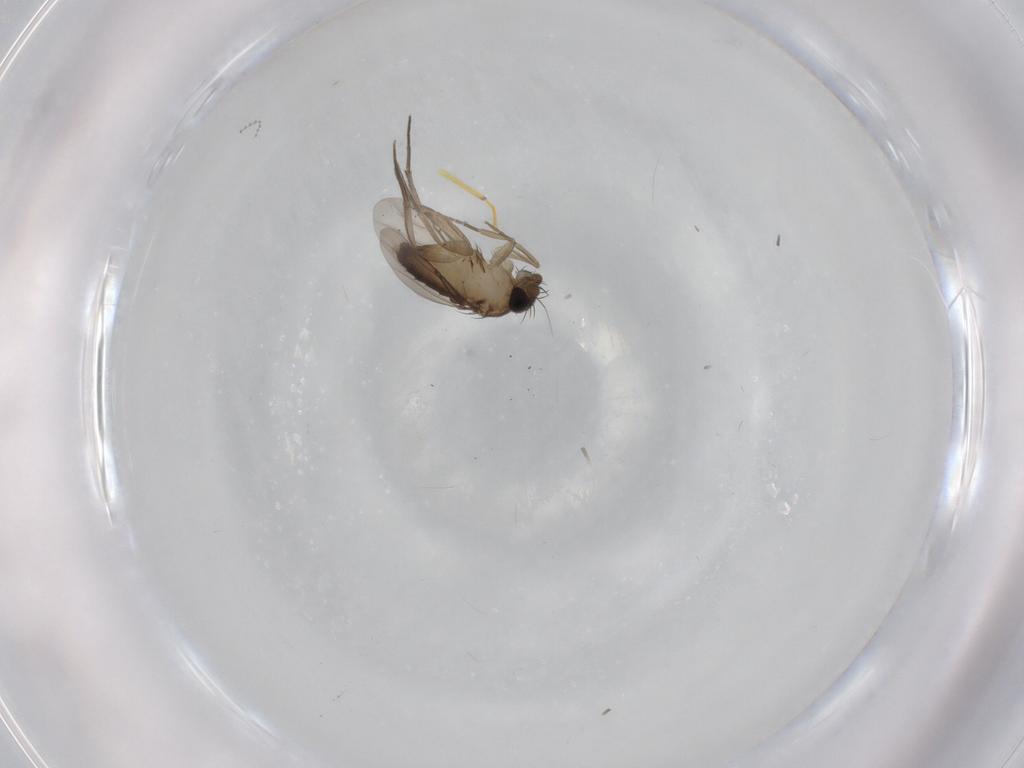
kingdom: Animalia
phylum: Arthropoda
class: Insecta
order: Diptera
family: Phoridae
